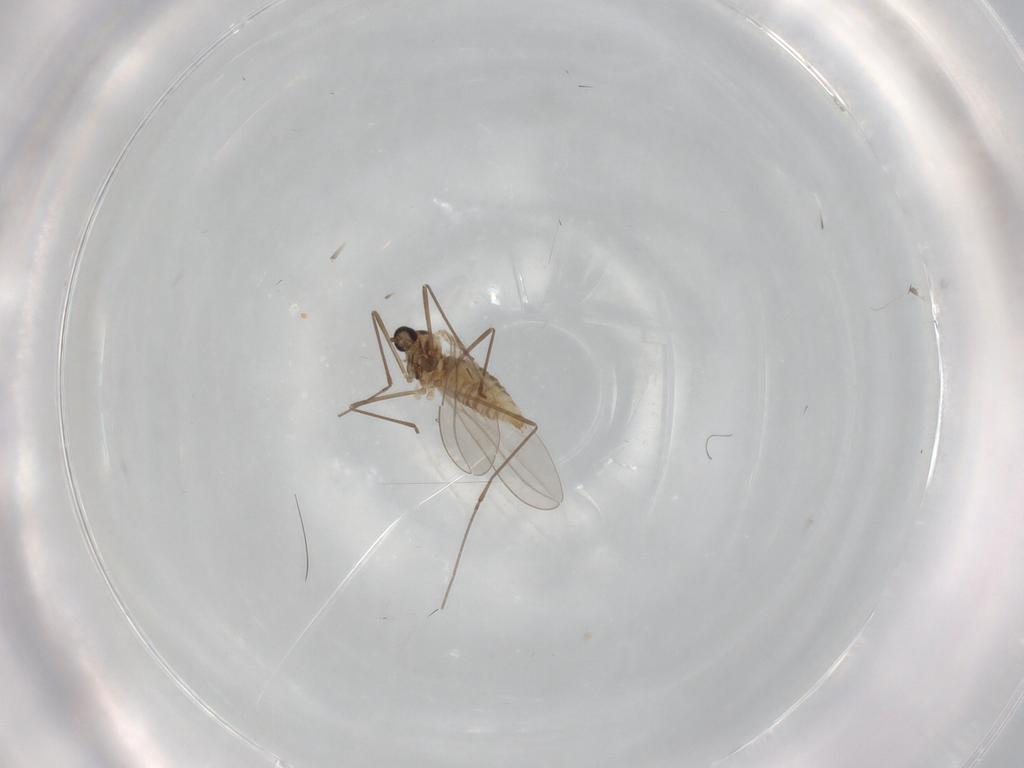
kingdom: Animalia
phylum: Arthropoda
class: Insecta
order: Diptera
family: Cecidomyiidae
